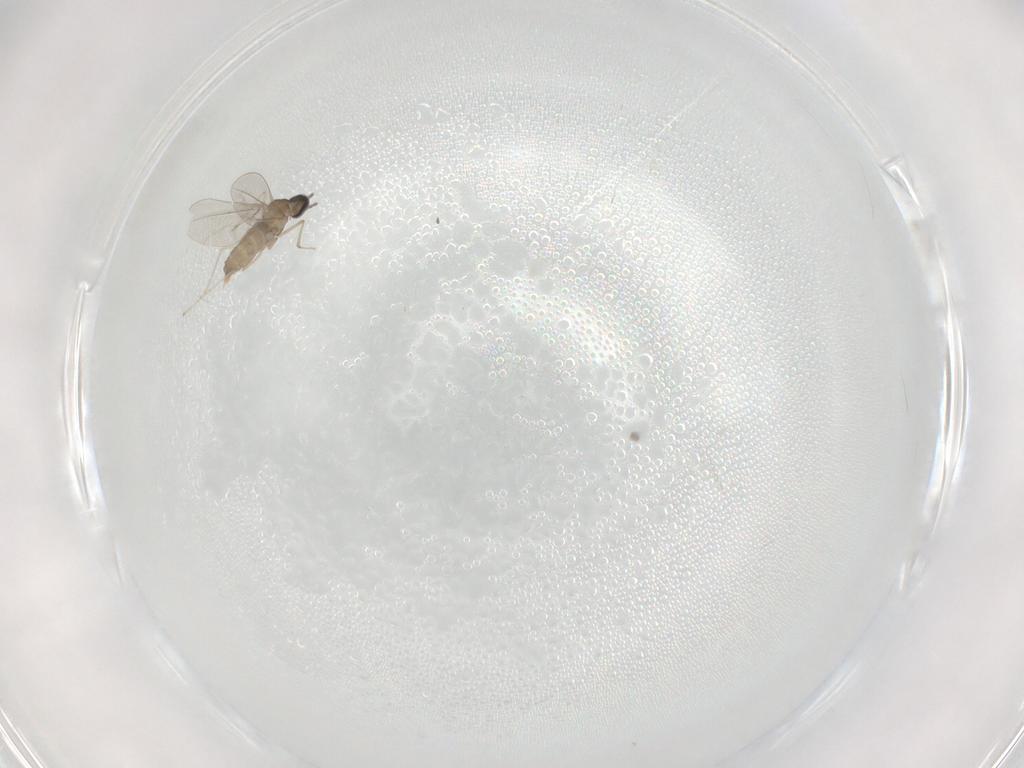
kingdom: Animalia
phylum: Arthropoda
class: Insecta
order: Diptera
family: Cecidomyiidae
